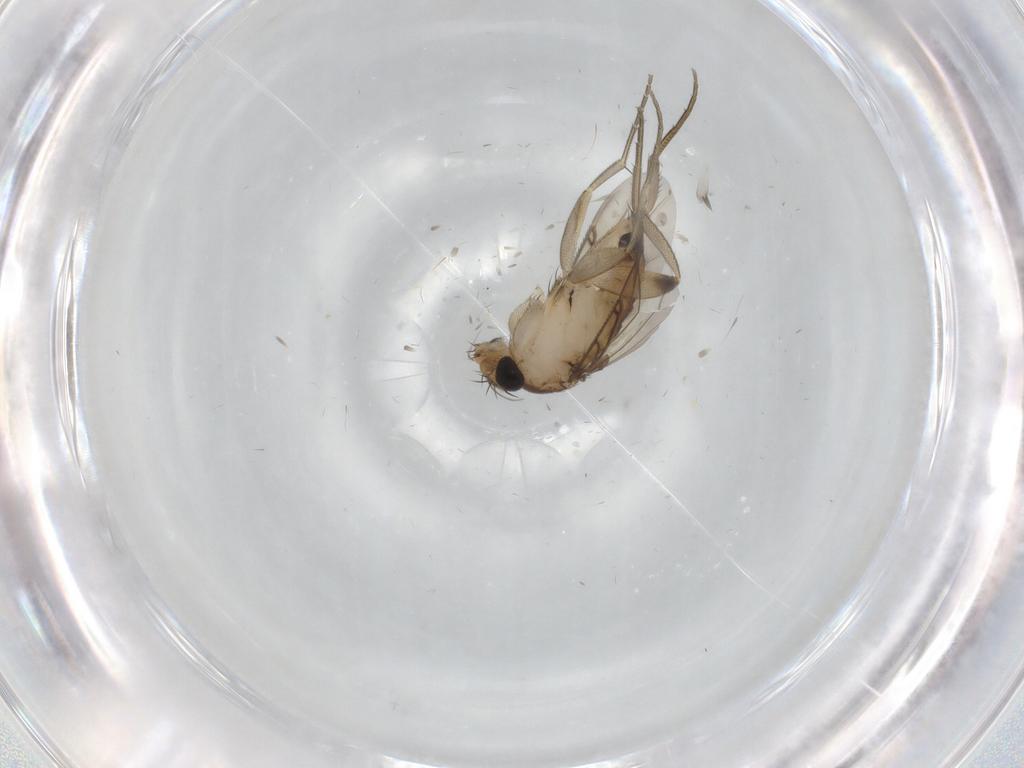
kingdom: Animalia
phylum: Arthropoda
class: Insecta
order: Diptera
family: Phoridae
